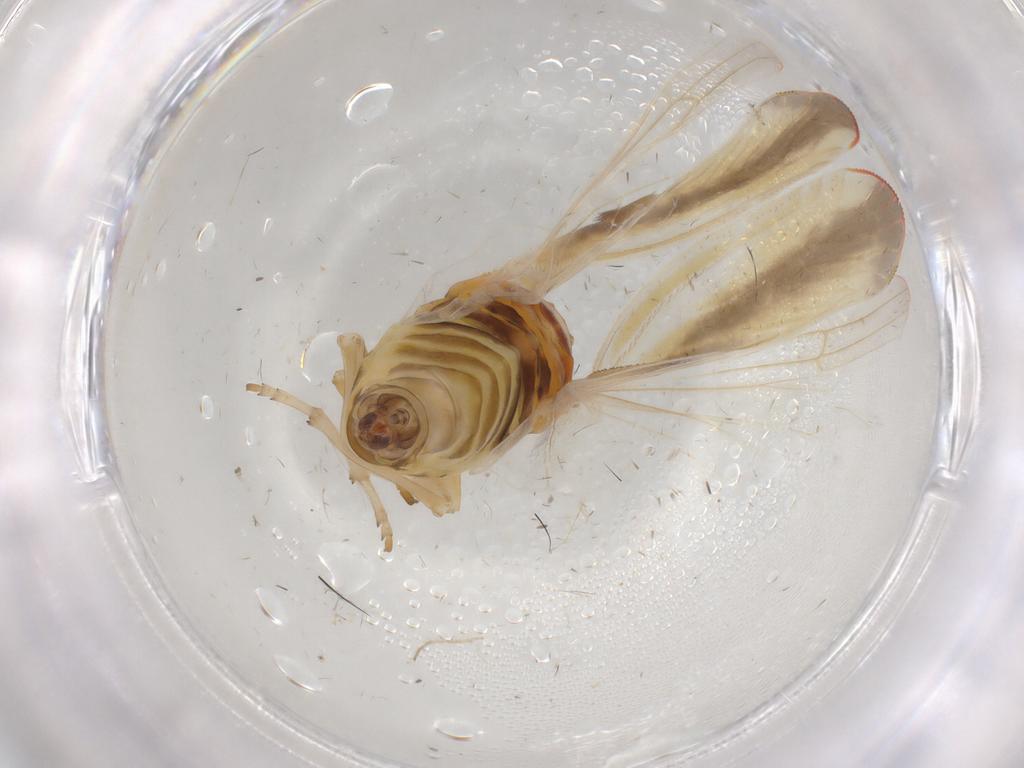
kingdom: Animalia
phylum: Arthropoda
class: Insecta
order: Hemiptera
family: Derbidae
